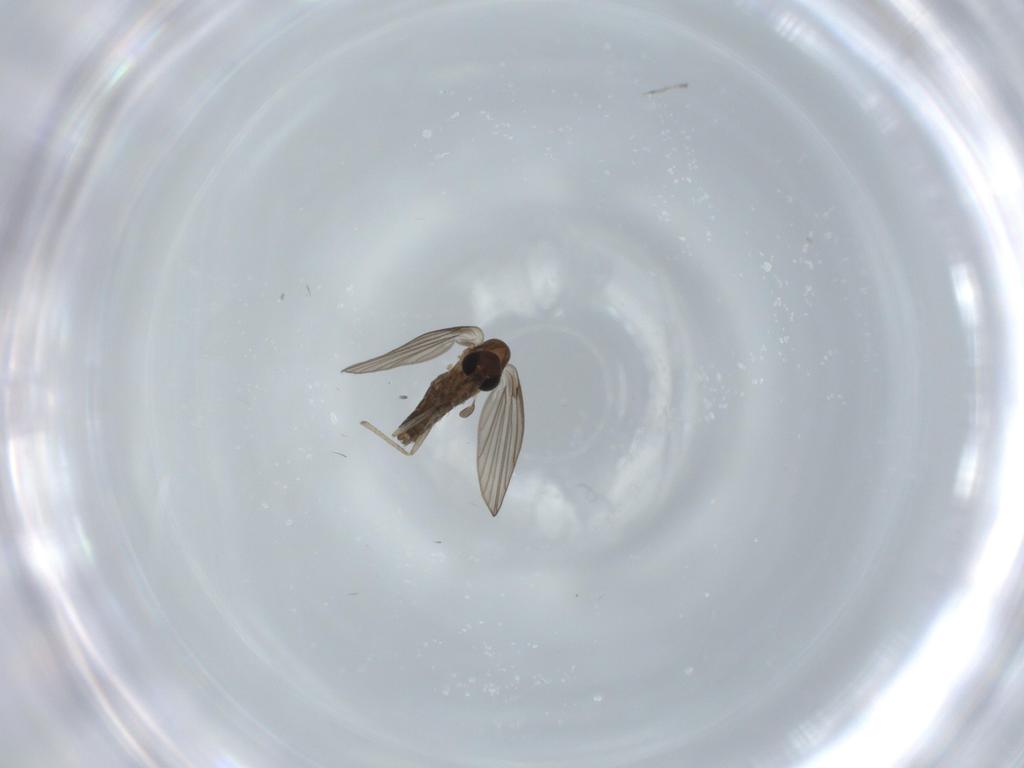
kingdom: Animalia
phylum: Arthropoda
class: Insecta
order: Diptera
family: Psychodidae
